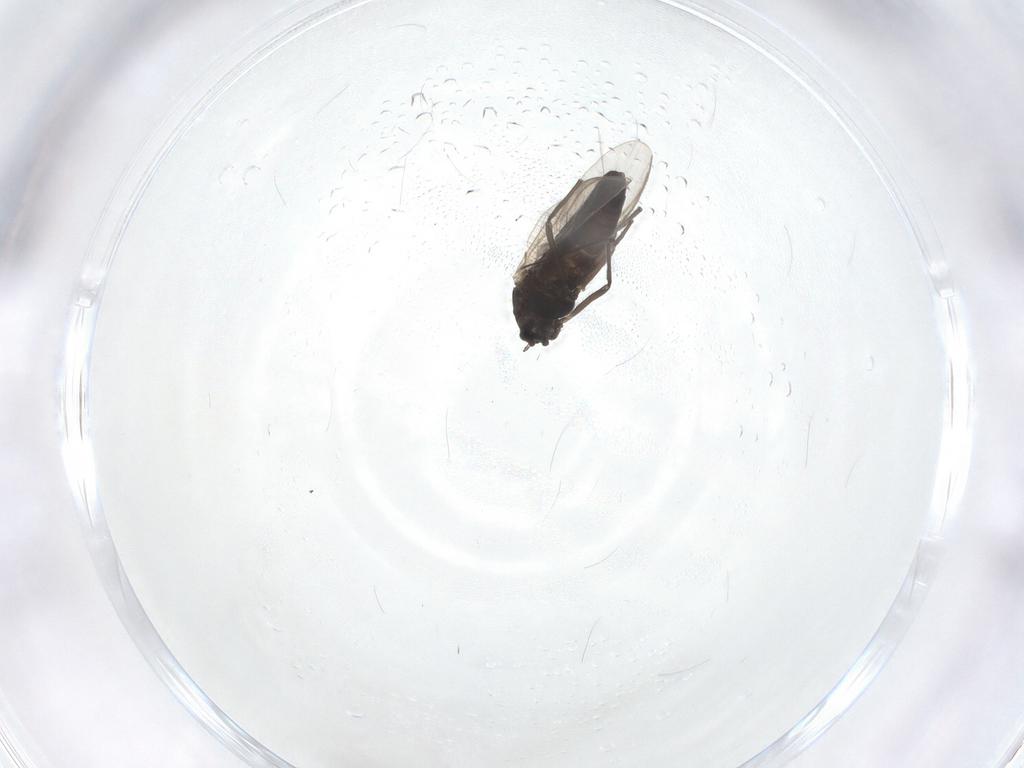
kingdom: Animalia
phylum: Arthropoda
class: Insecta
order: Diptera
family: Chironomidae
